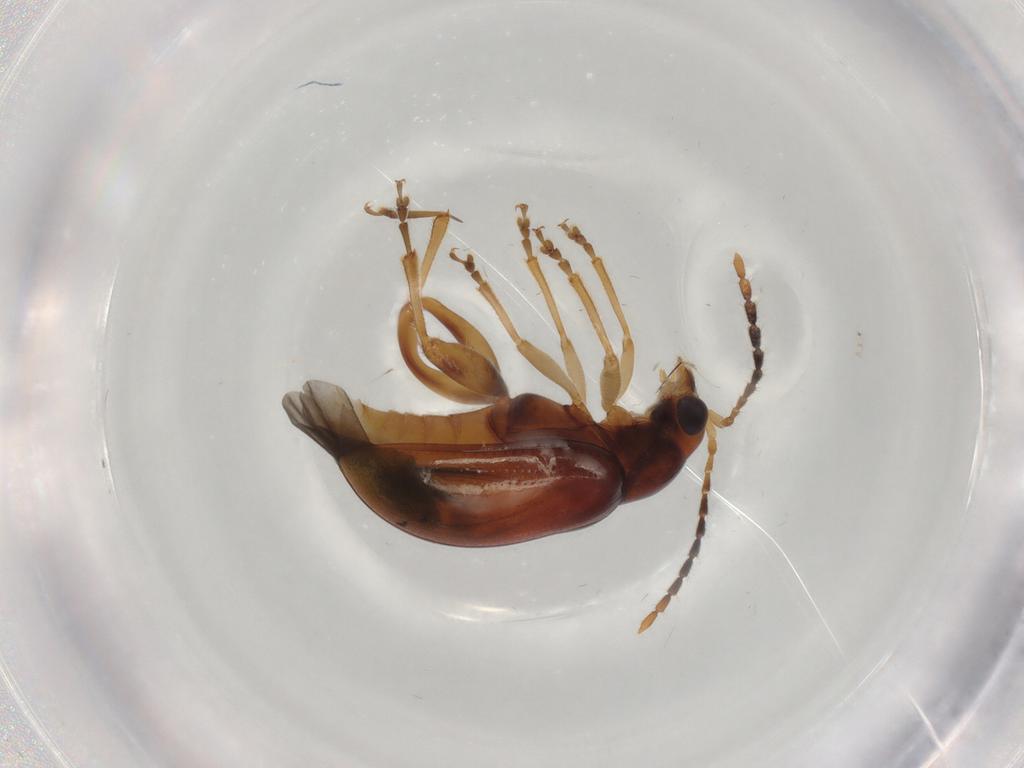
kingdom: Animalia
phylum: Arthropoda
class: Insecta
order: Coleoptera
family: Chrysomelidae
